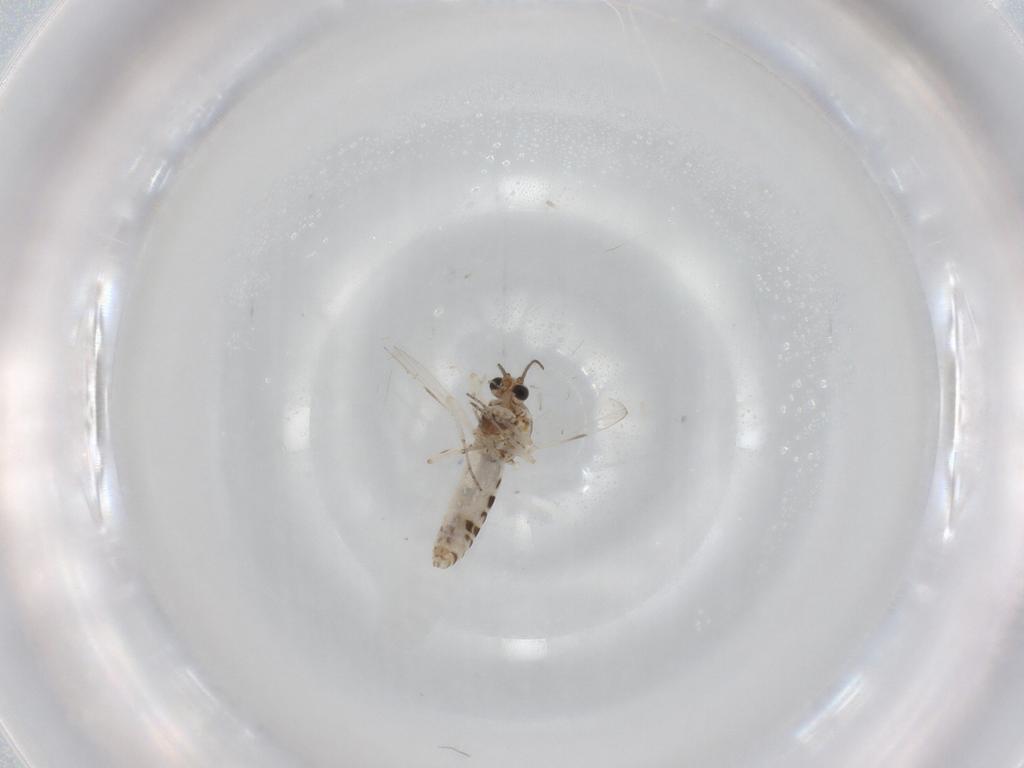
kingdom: Animalia
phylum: Arthropoda
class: Insecta
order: Diptera
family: Ceratopogonidae
